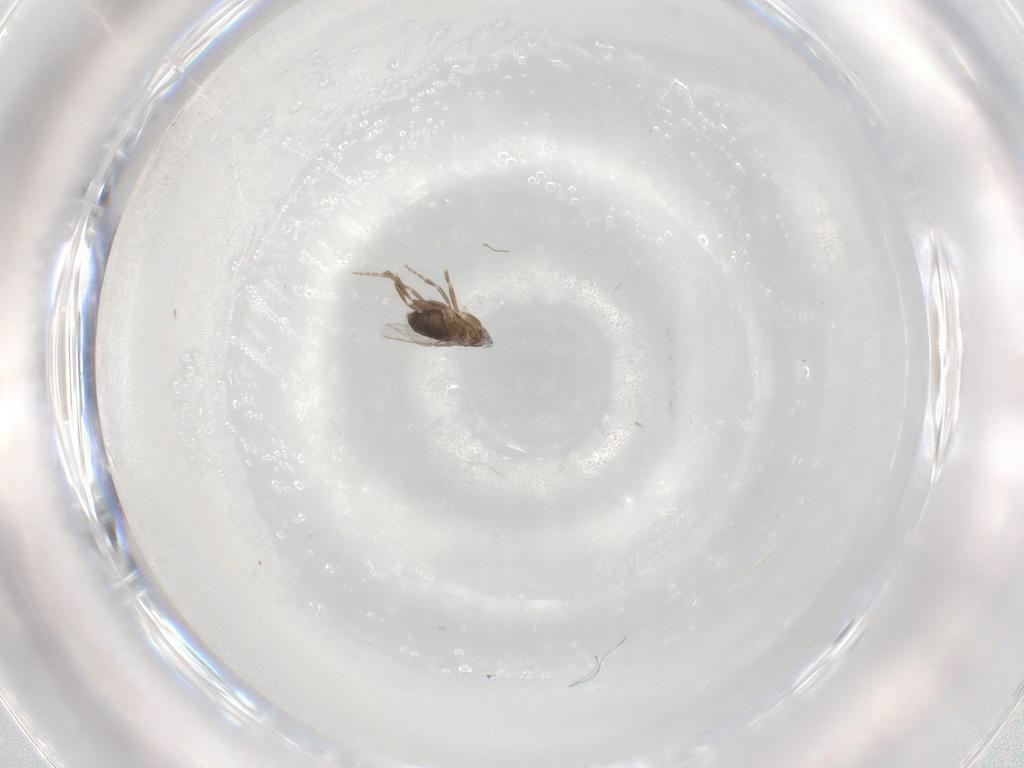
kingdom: Animalia
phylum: Arthropoda
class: Insecta
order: Diptera
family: Phoridae
